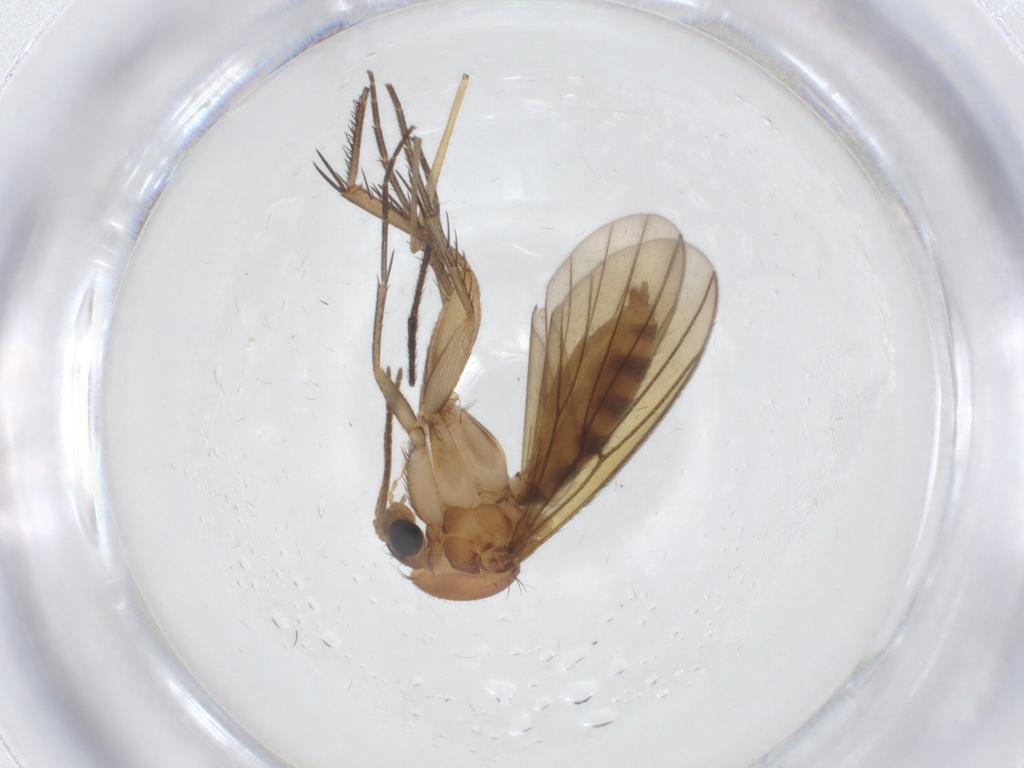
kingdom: Animalia
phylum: Arthropoda
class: Insecta
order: Diptera
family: Mycetophilidae
